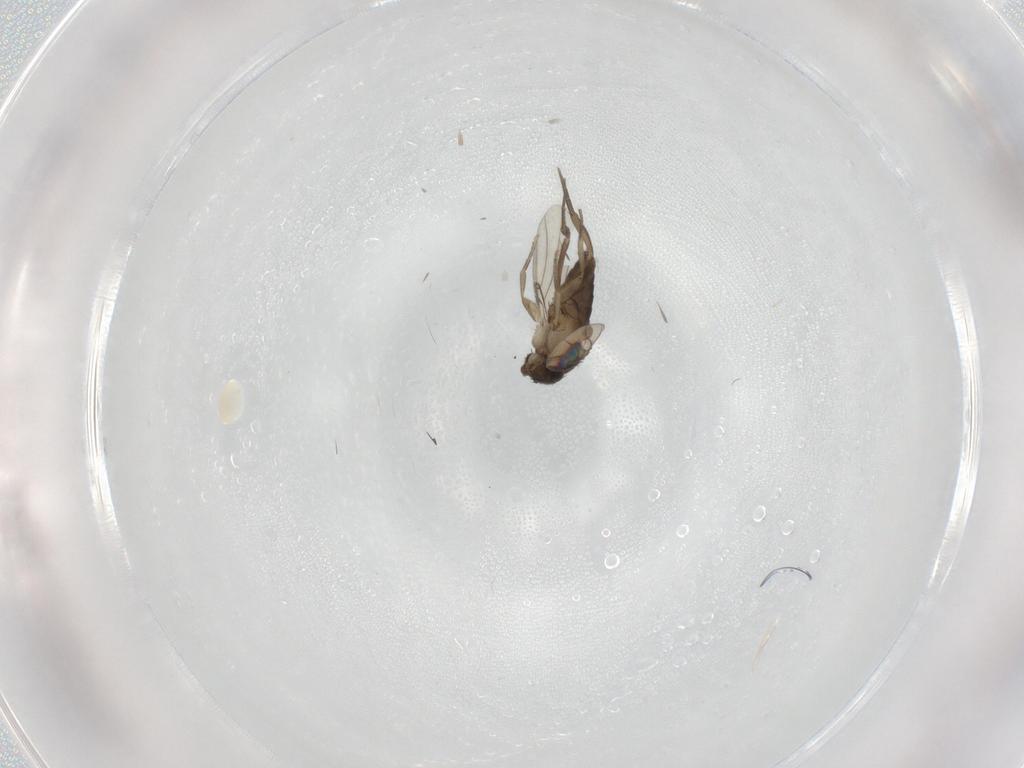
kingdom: Animalia
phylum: Arthropoda
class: Insecta
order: Diptera
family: Phoridae
